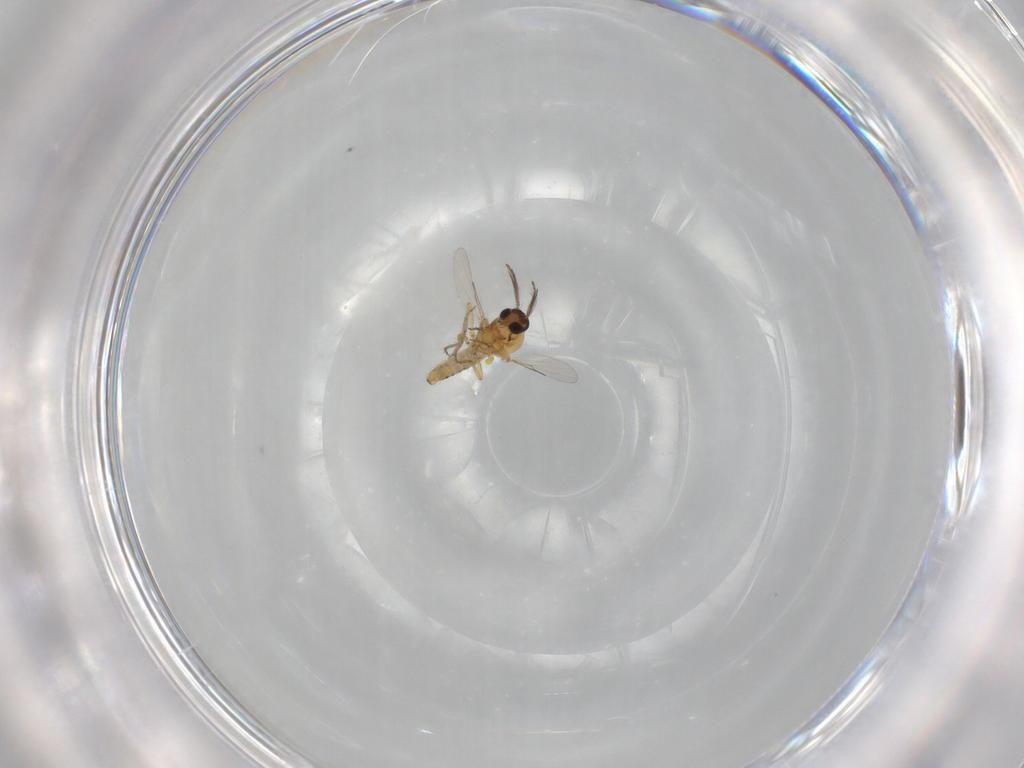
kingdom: Animalia
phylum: Arthropoda
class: Insecta
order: Diptera
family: Ceratopogonidae
